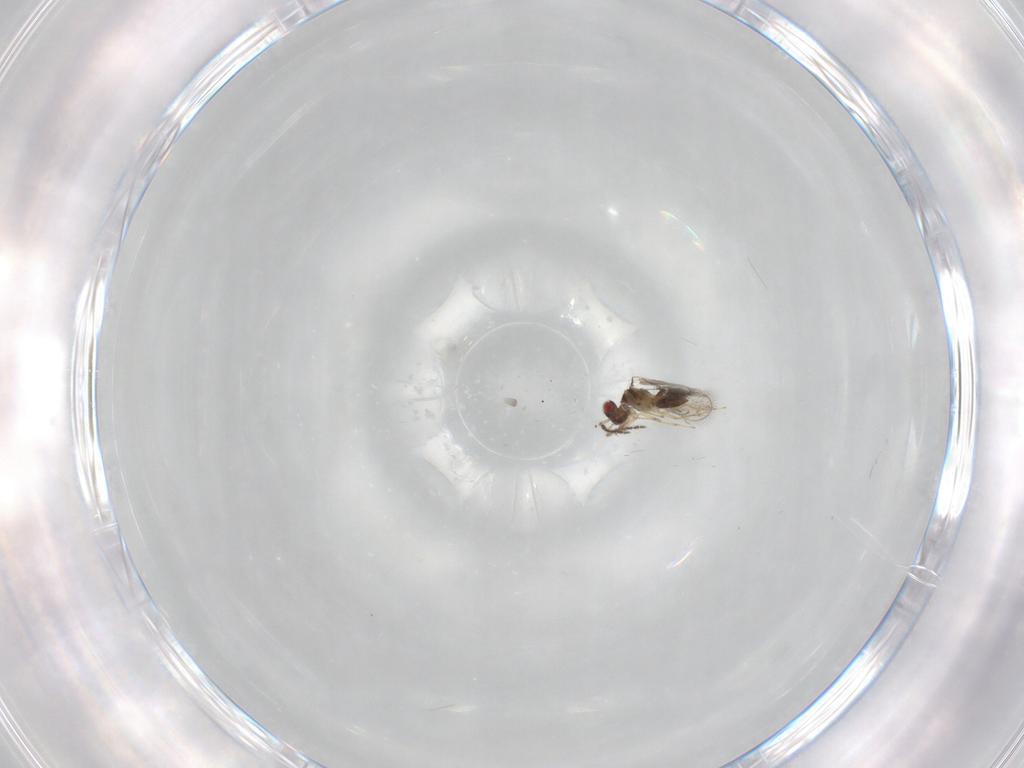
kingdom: Animalia
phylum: Arthropoda
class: Insecta
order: Hymenoptera
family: Eulophidae
